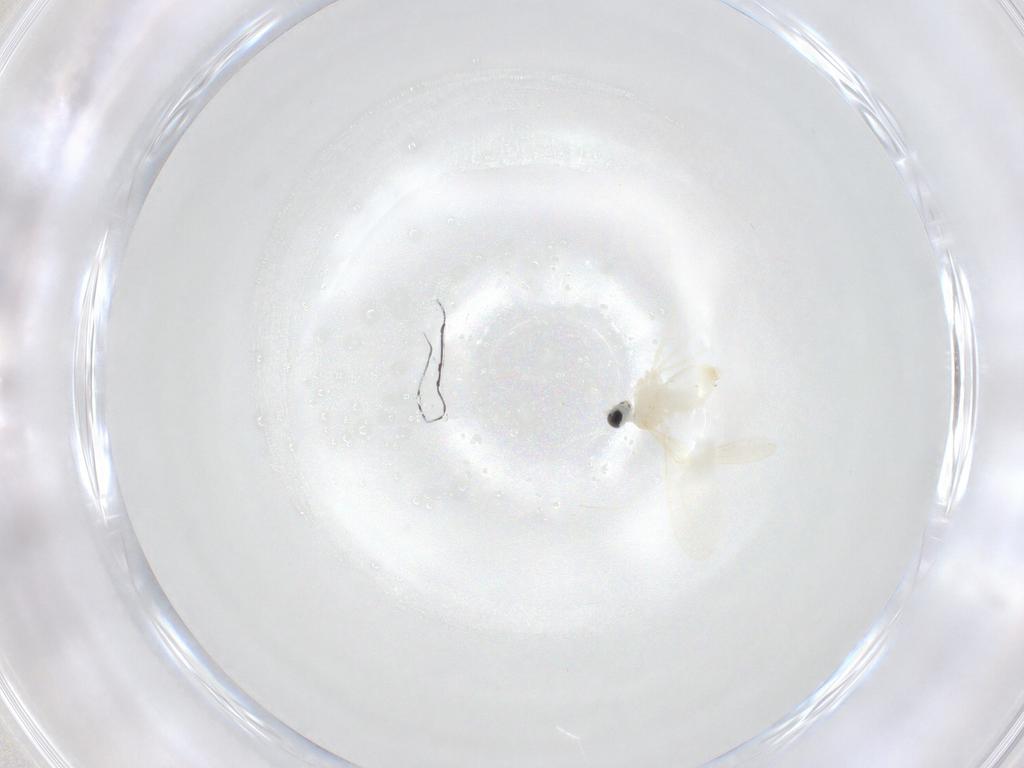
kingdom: Animalia
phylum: Arthropoda
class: Insecta
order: Diptera
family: Cecidomyiidae
